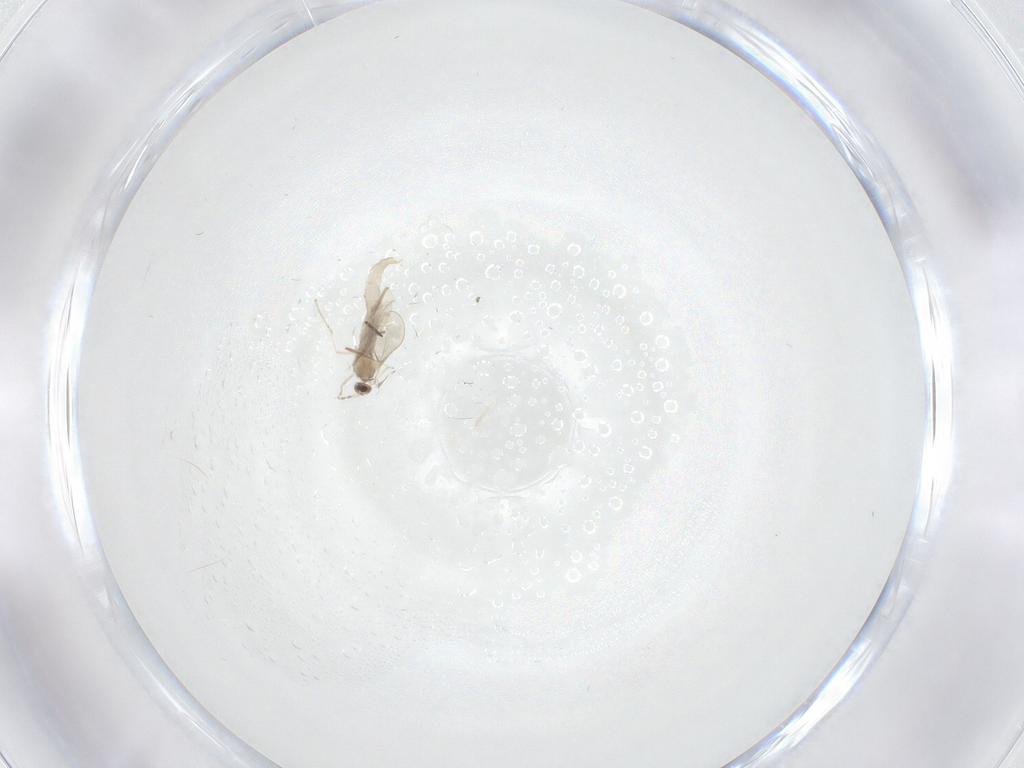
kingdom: Animalia
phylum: Arthropoda
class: Insecta
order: Diptera
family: Cecidomyiidae
